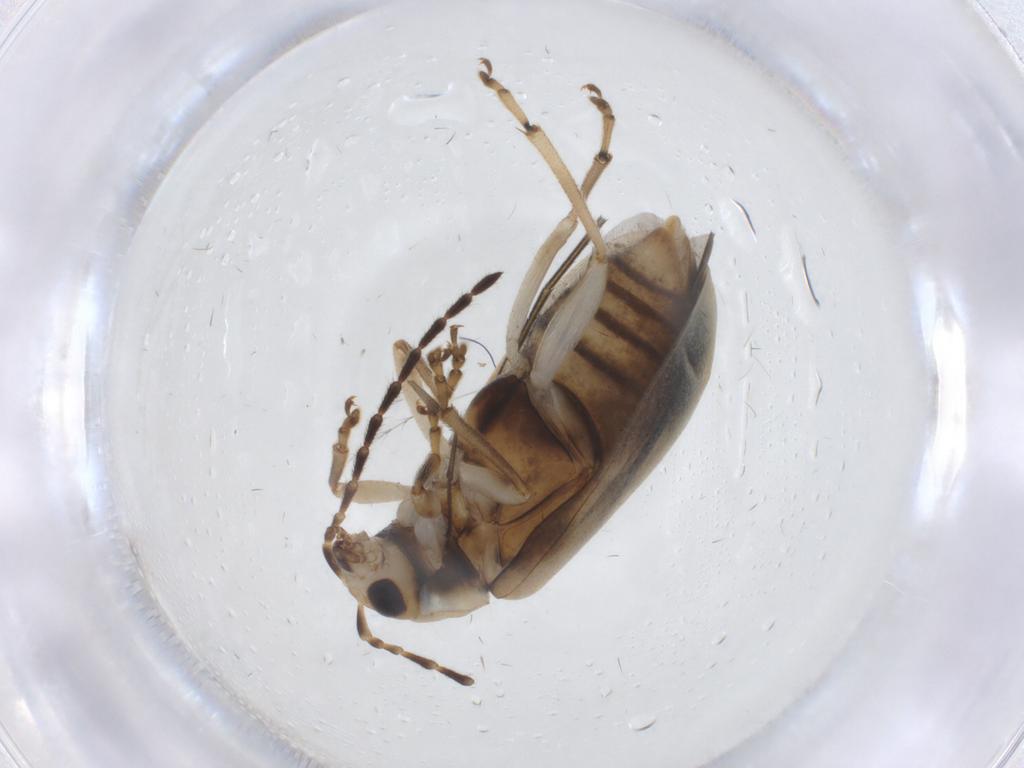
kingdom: Animalia
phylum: Arthropoda
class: Insecta
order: Coleoptera
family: Chrysomelidae
